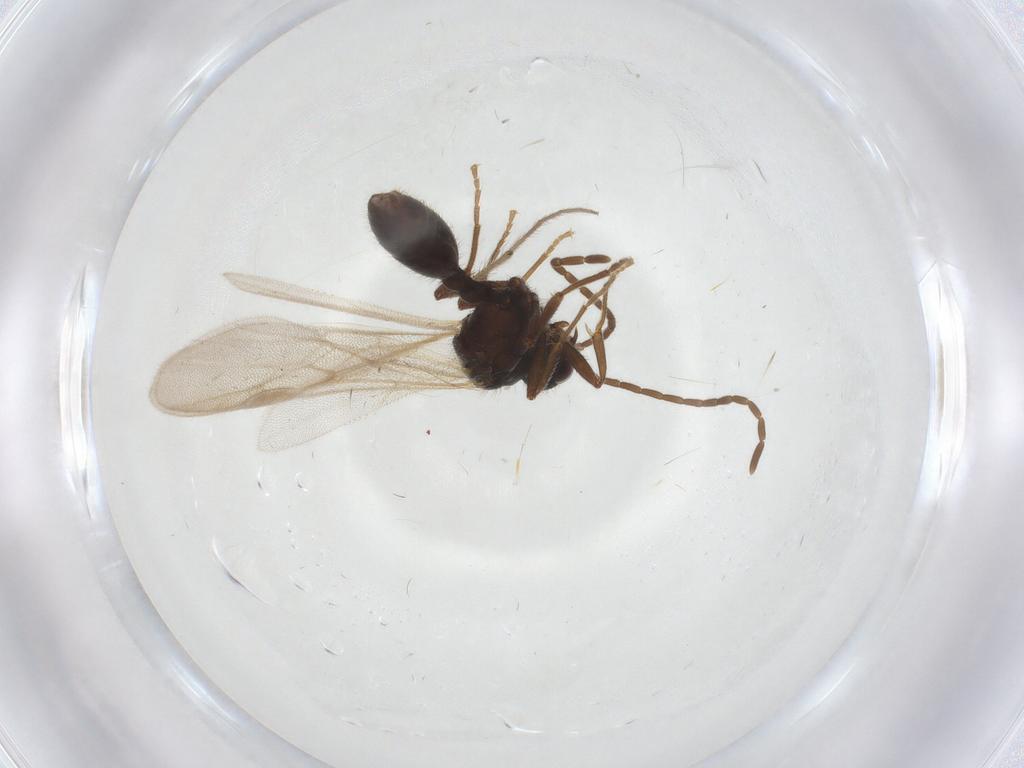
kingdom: Animalia
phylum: Arthropoda
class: Insecta
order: Hymenoptera
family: Formicidae
